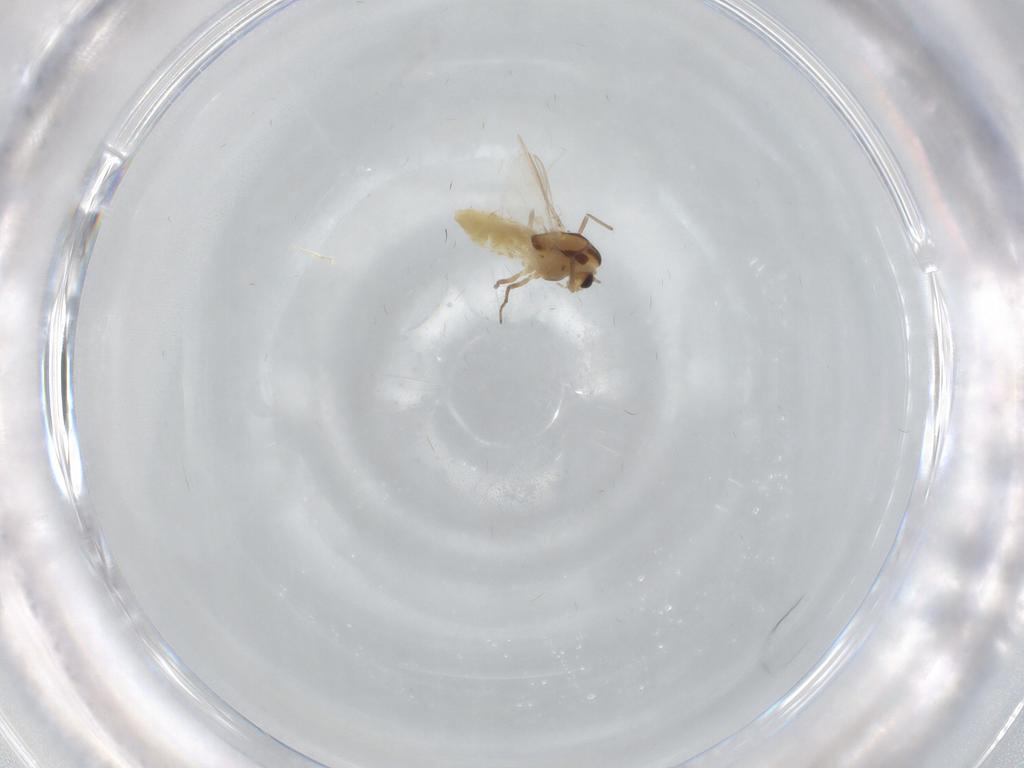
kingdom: Animalia
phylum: Arthropoda
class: Insecta
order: Diptera
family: Chironomidae
